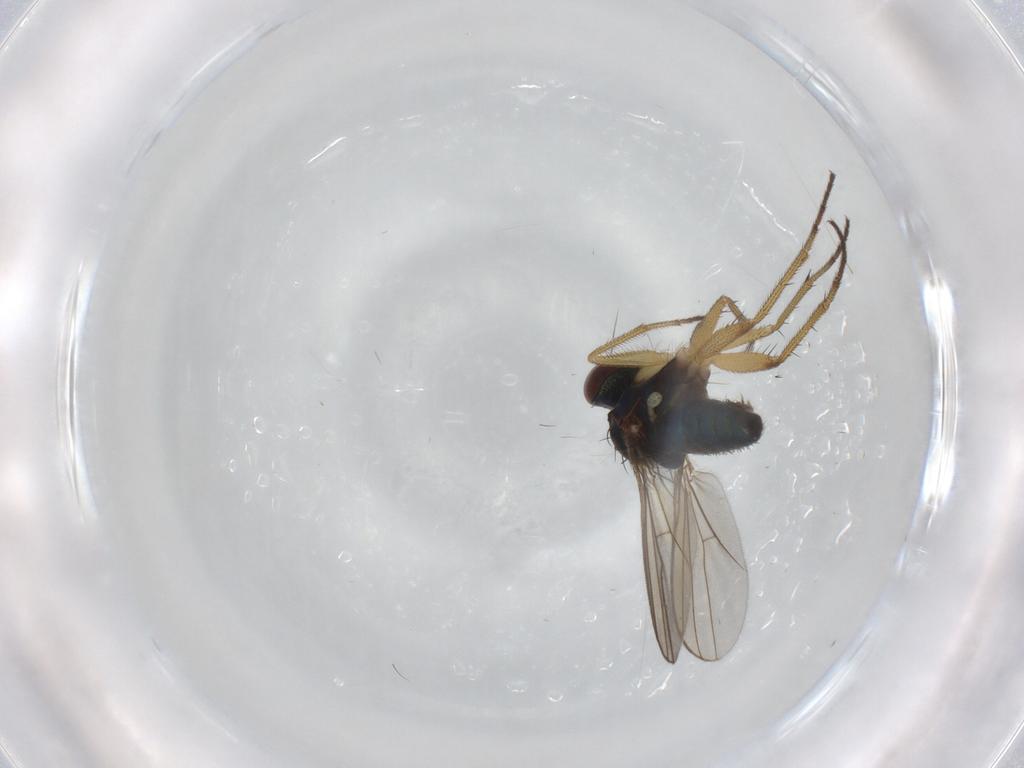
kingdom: Animalia
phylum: Arthropoda
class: Insecta
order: Diptera
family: Dolichopodidae
